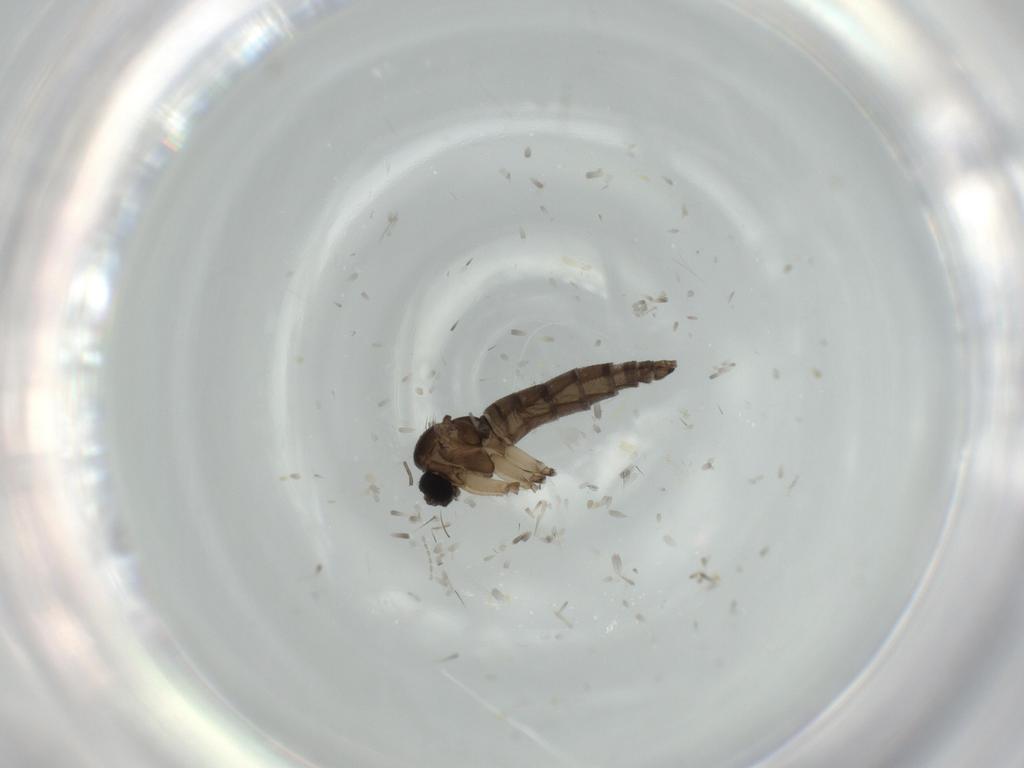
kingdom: Animalia
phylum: Arthropoda
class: Insecta
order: Diptera
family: Cecidomyiidae
